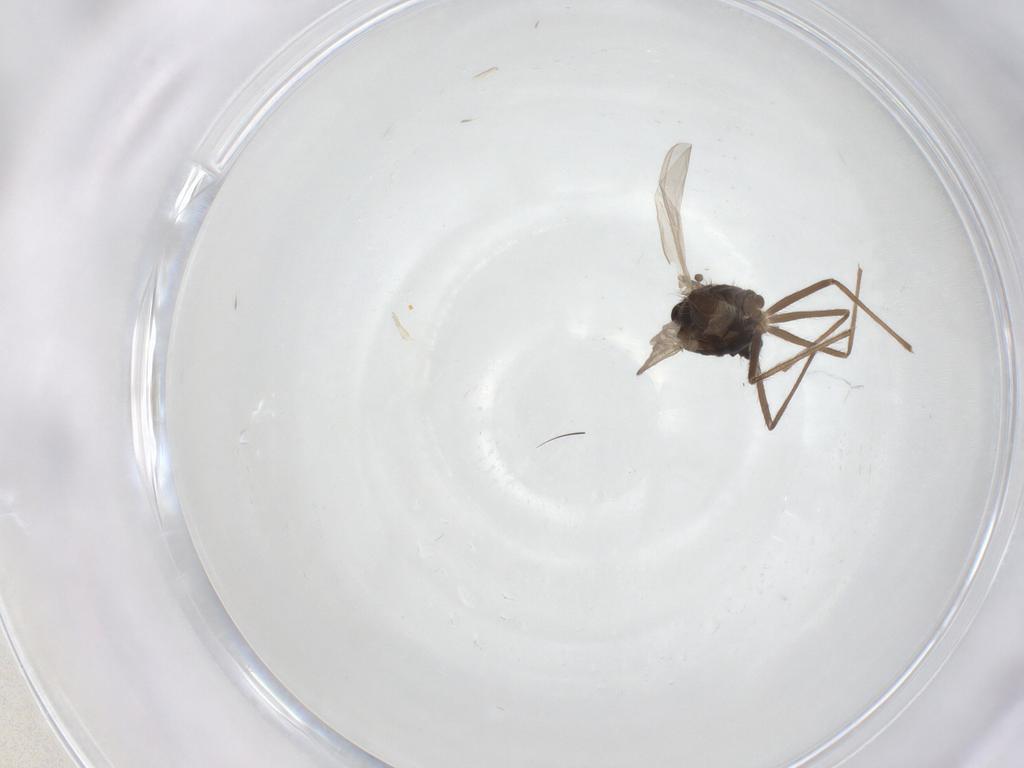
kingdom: Animalia
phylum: Arthropoda
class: Insecta
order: Diptera
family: Chironomidae
